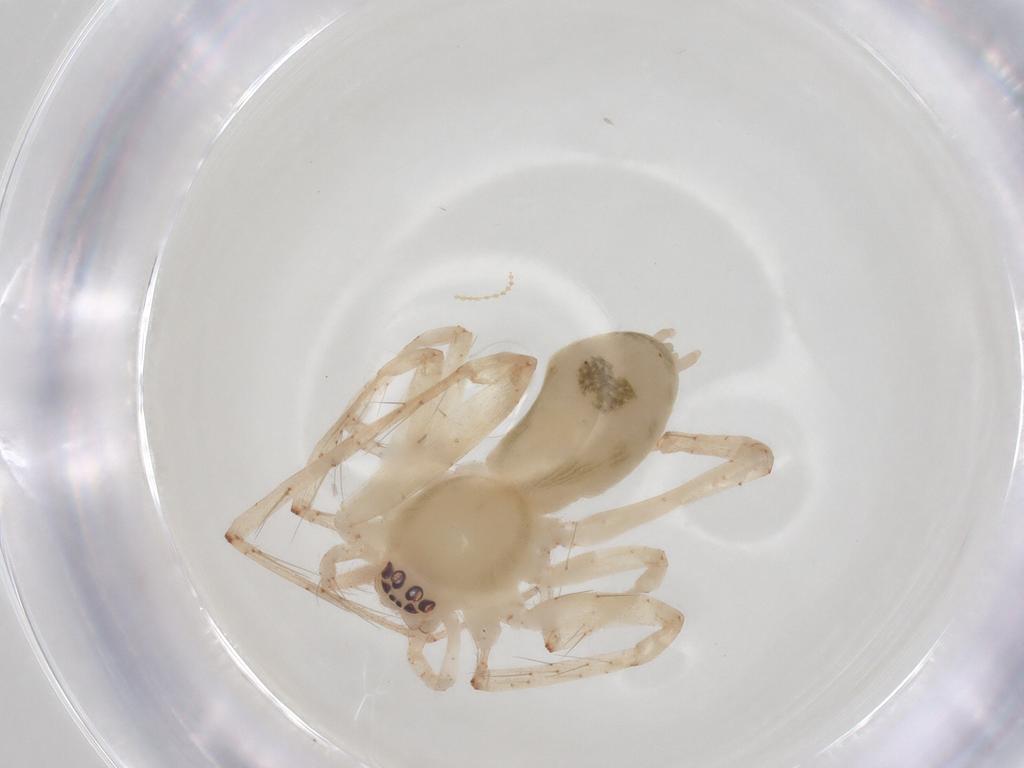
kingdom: Animalia
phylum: Arthropoda
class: Arachnida
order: Araneae
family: Anyphaenidae
